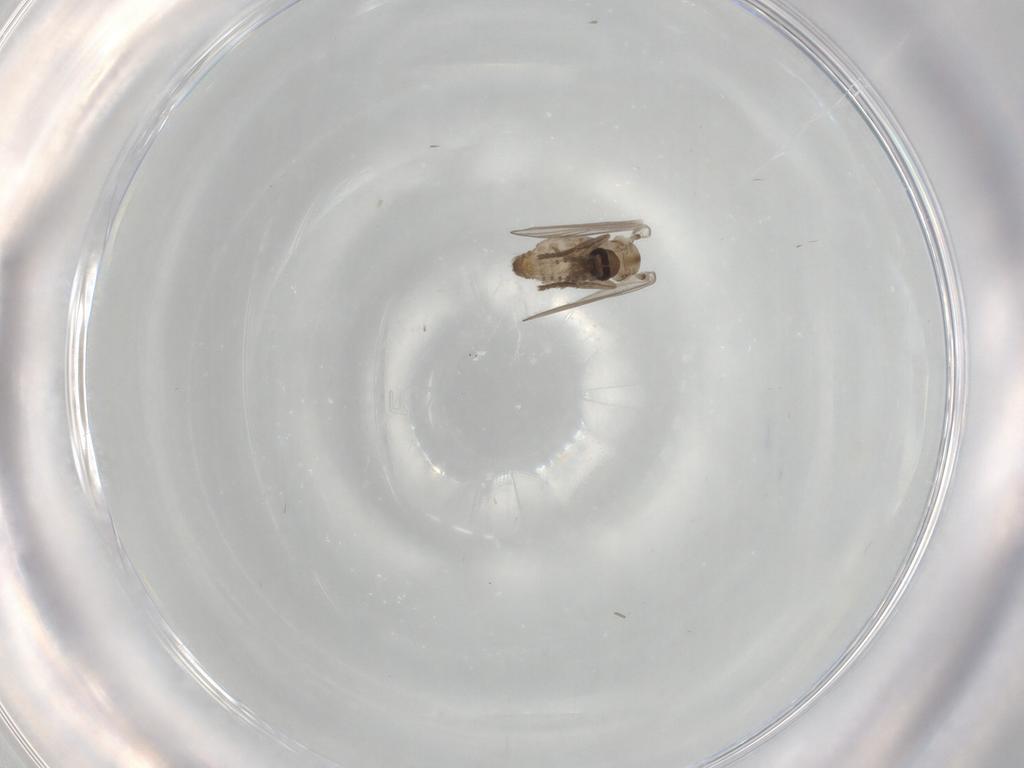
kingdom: Animalia
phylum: Arthropoda
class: Insecta
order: Diptera
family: Psychodidae
